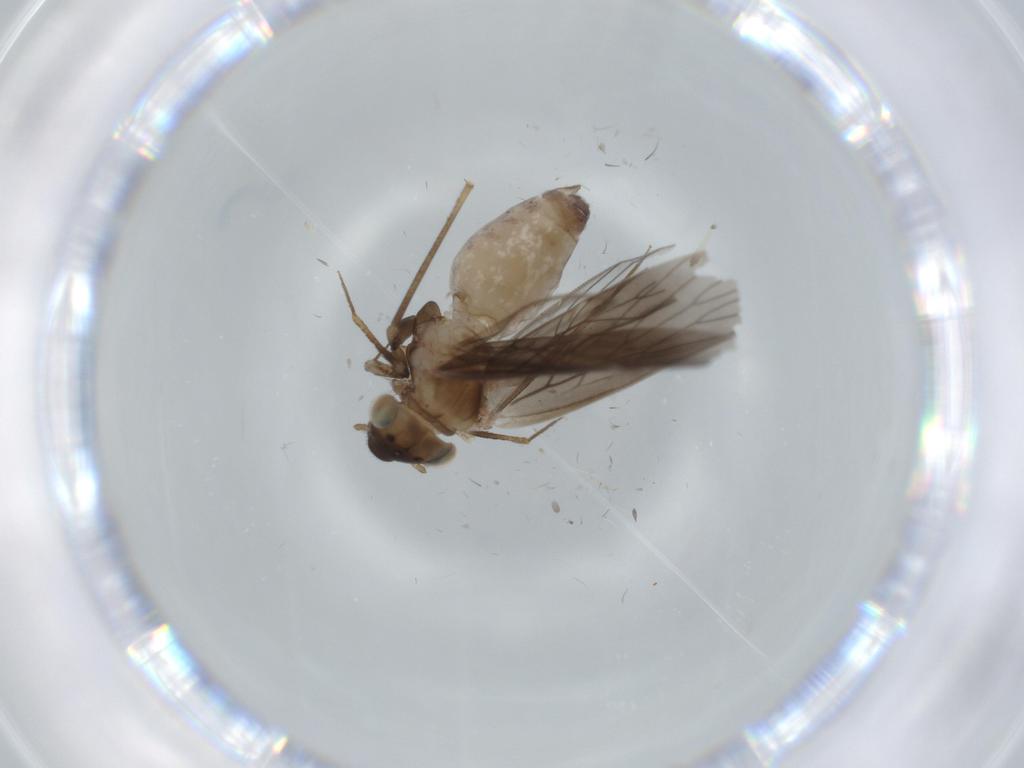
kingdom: Animalia
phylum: Arthropoda
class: Insecta
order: Psocodea
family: Lepidopsocidae
